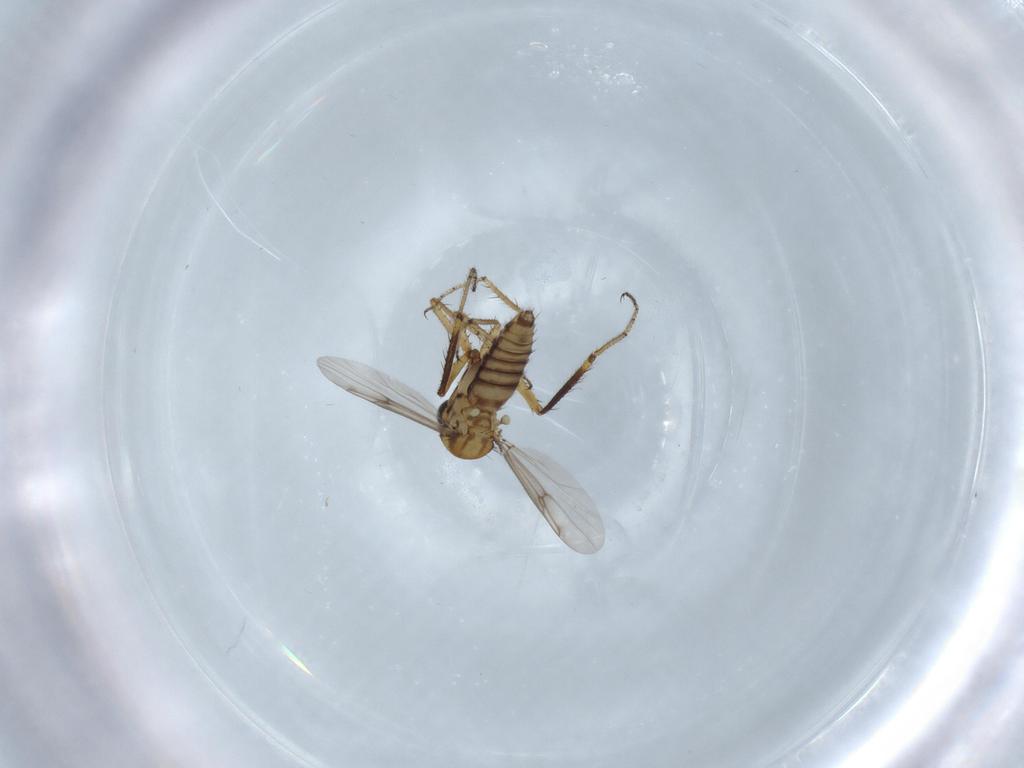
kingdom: Animalia
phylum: Arthropoda
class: Insecta
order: Diptera
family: Ceratopogonidae
